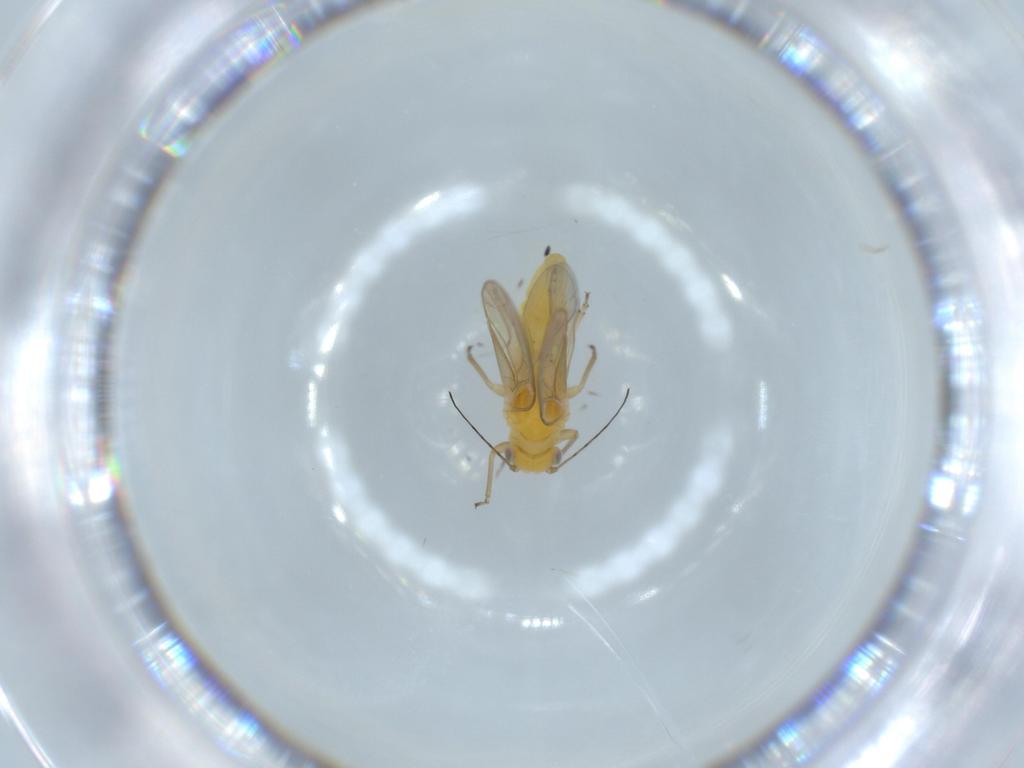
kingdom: Animalia
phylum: Arthropoda
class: Insecta
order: Hemiptera
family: Triozidae
